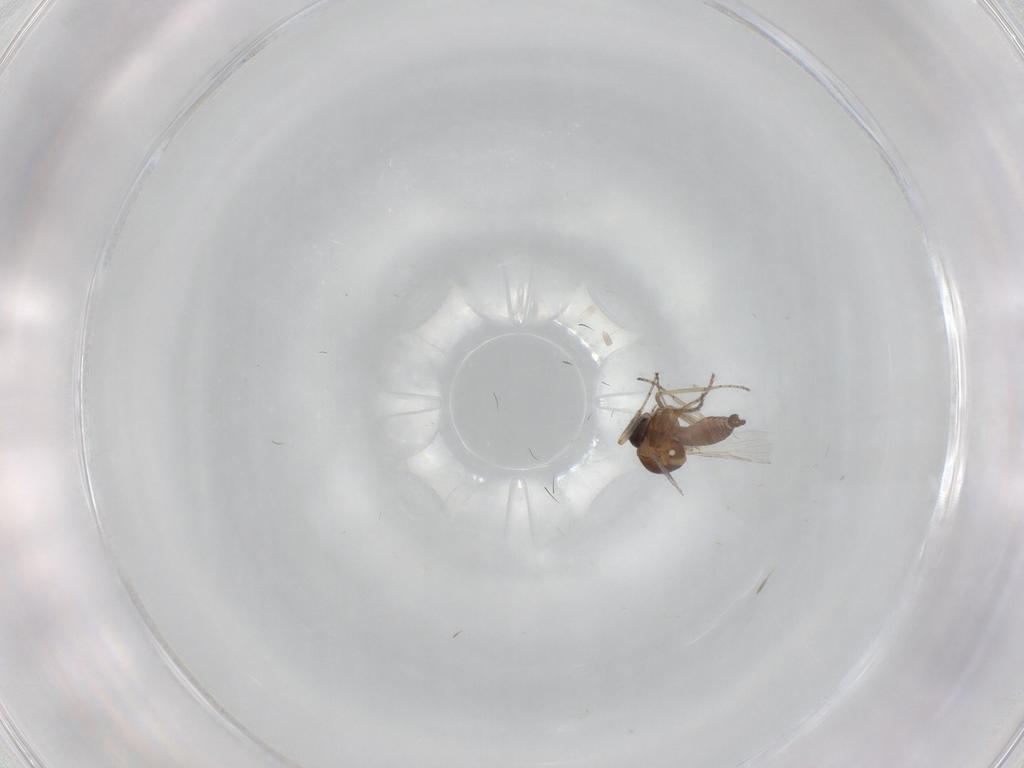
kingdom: Animalia
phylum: Arthropoda
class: Insecta
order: Diptera
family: Ceratopogonidae
